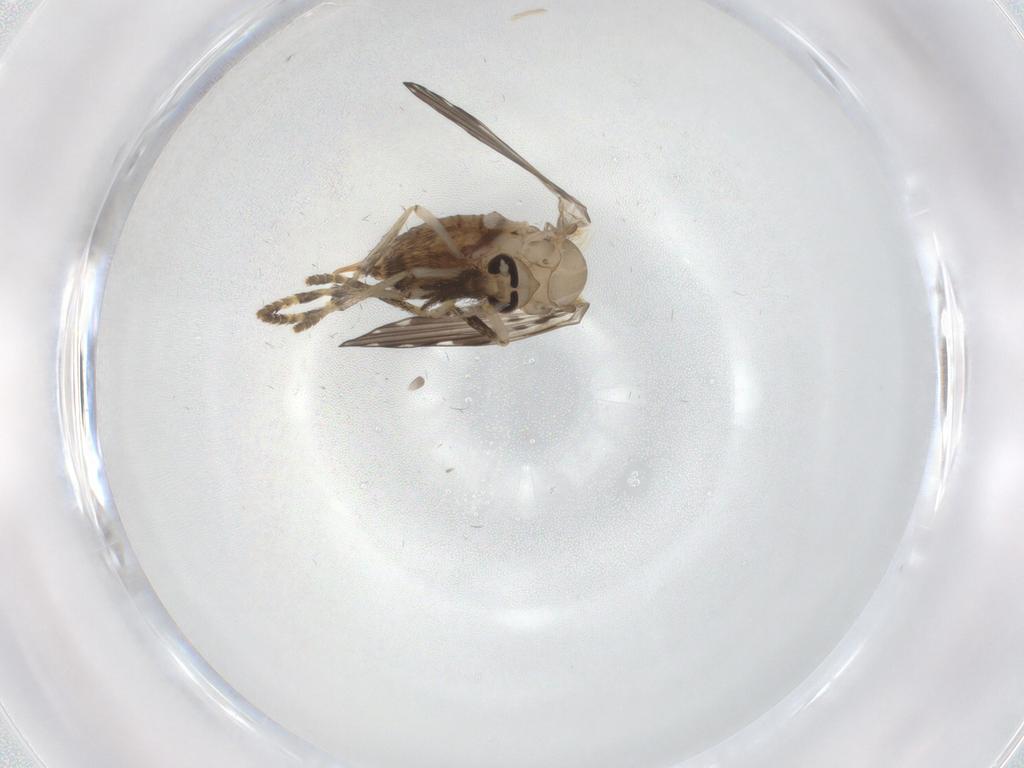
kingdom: Animalia
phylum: Arthropoda
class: Insecta
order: Diptera
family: Psychodidae
